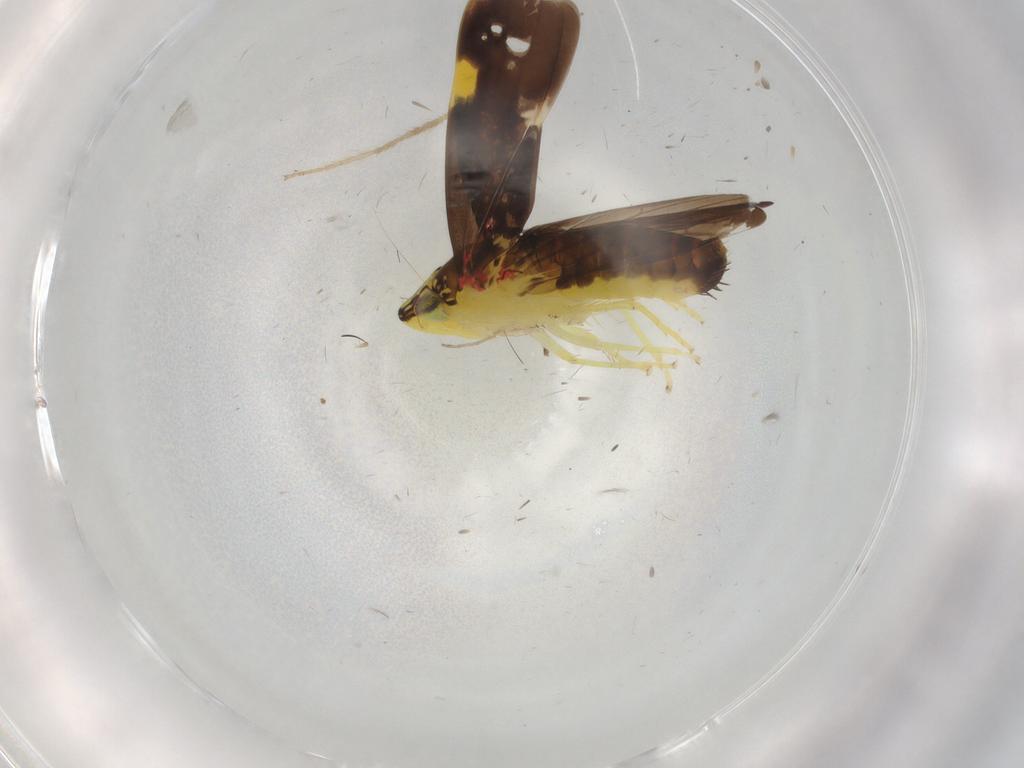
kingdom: Animalia
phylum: Arthropoda
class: Insecta
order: Hemiptera
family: Cicadellidae
